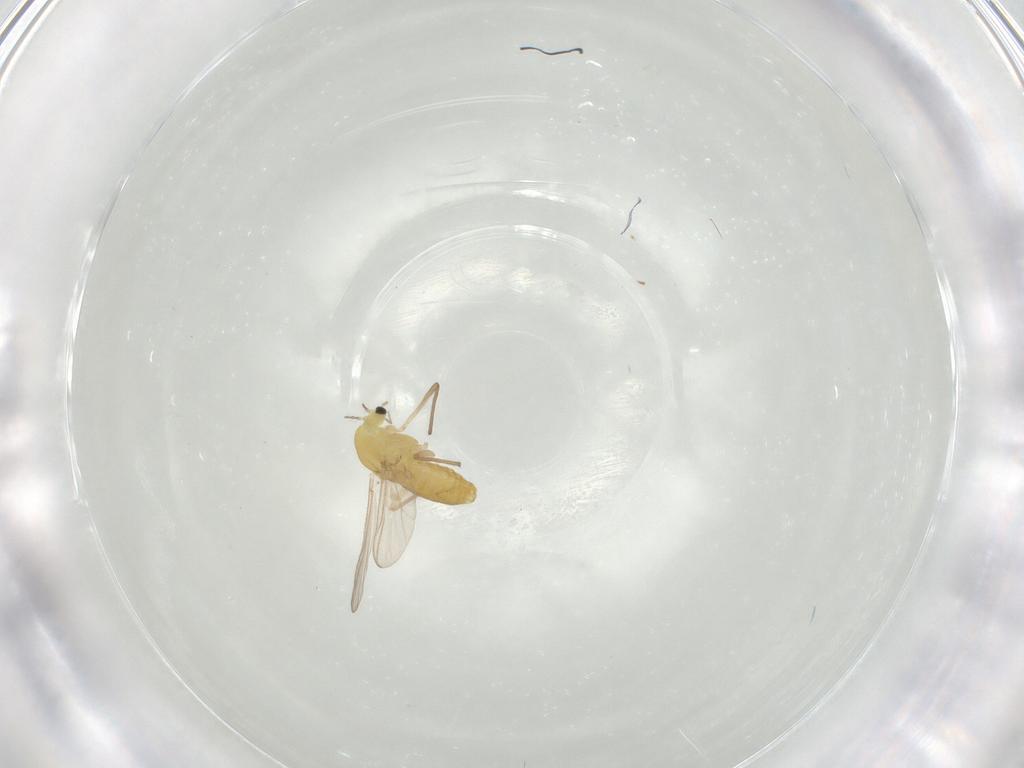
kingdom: Animalia
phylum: Arthropoda
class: Insecta
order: Diptera
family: Chironomidae
